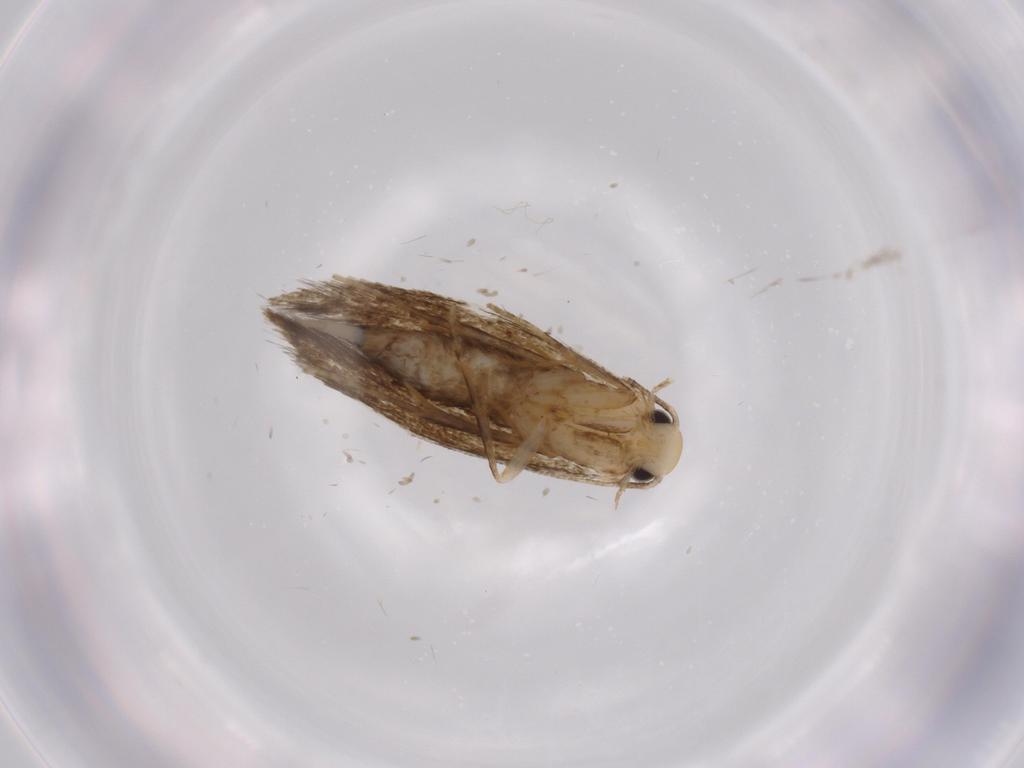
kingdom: Animalia
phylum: Arthropoda
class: Insecta
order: Lepidoptera
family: Tineidae
